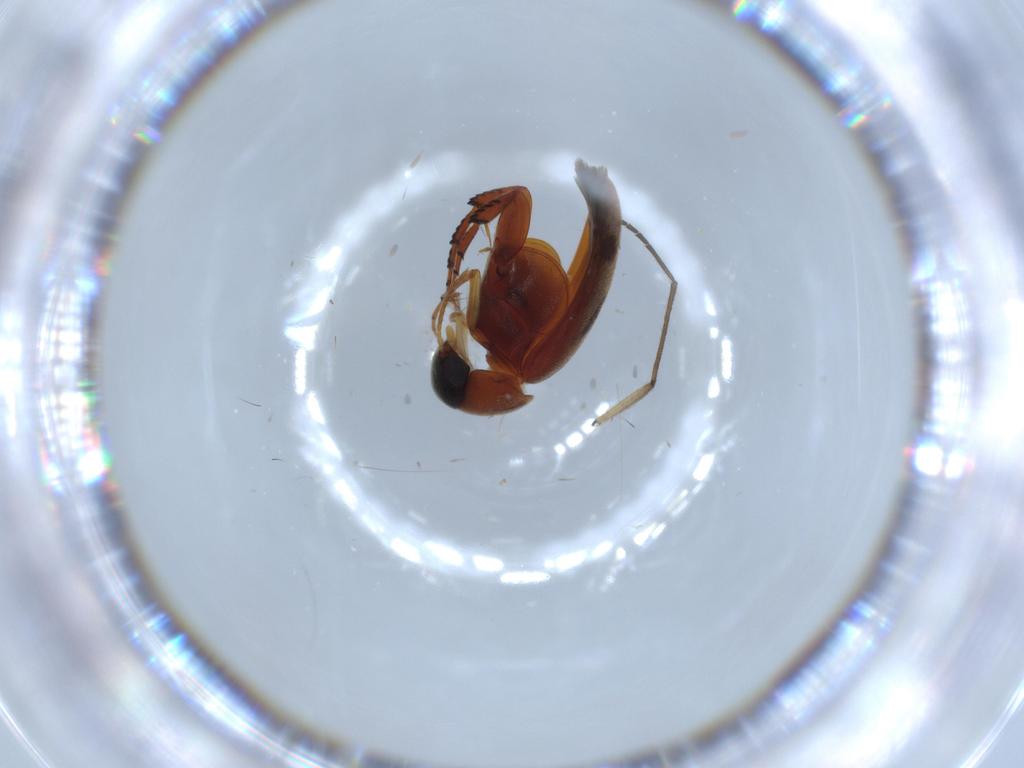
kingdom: Animalia
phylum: Arthropoda
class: Insecta
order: Coleoptera
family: Mordellidae
